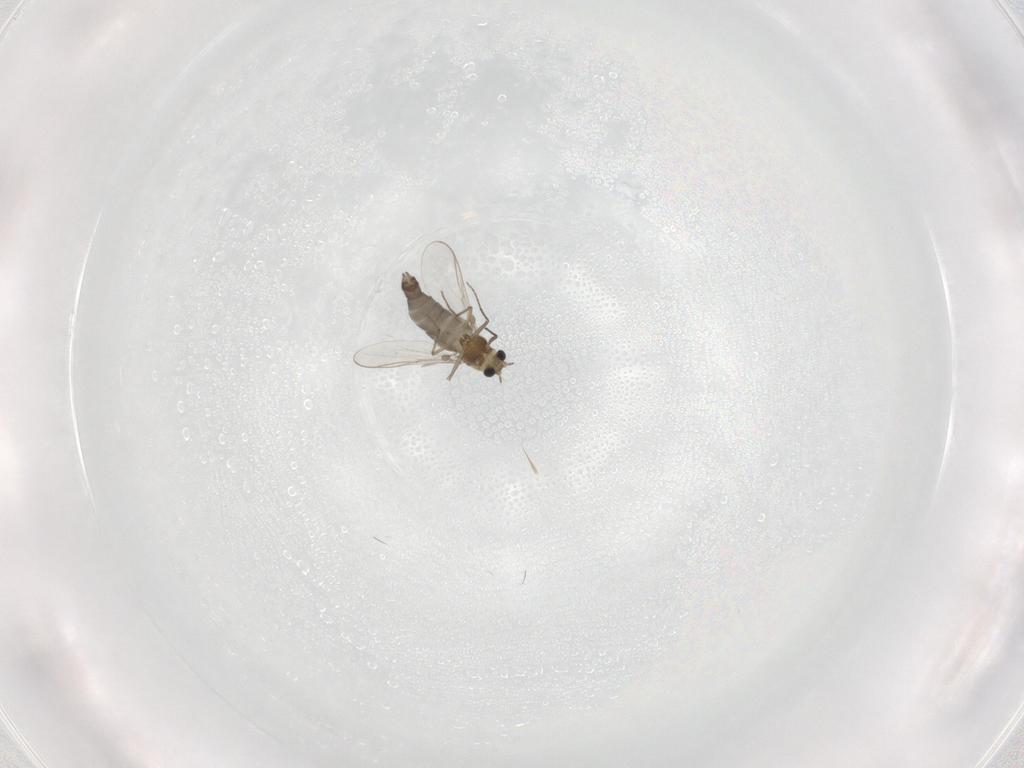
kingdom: Animalia
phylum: Arthropoda
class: Insecta
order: Diptera
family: Chironomidae
